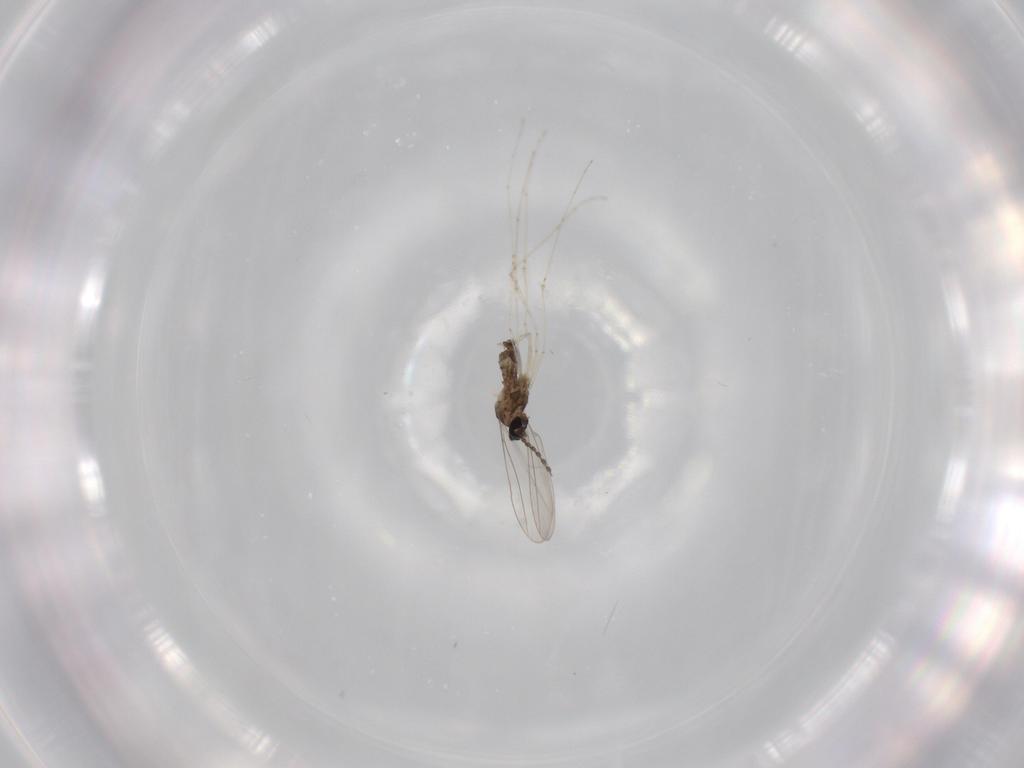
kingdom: Animalia
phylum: Arthropoda
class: Insecta
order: Diptera
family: Cecidomyiidae
